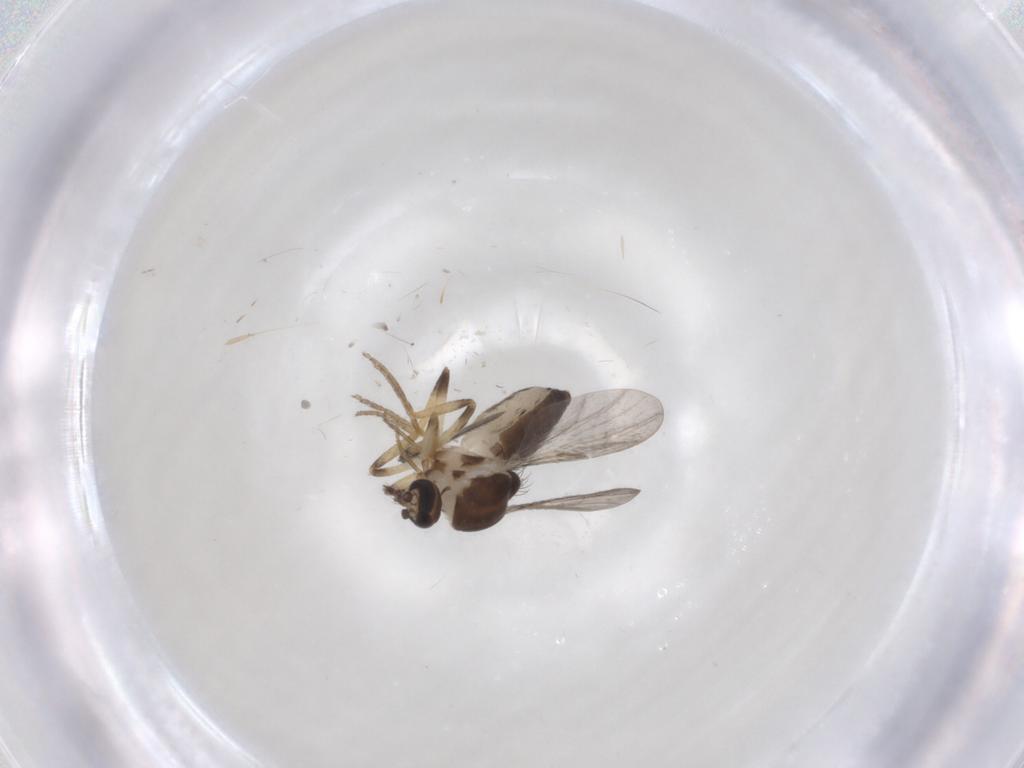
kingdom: Animalia
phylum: Arthropoda
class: Insecta
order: Diptera
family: Ceratopogonidae
